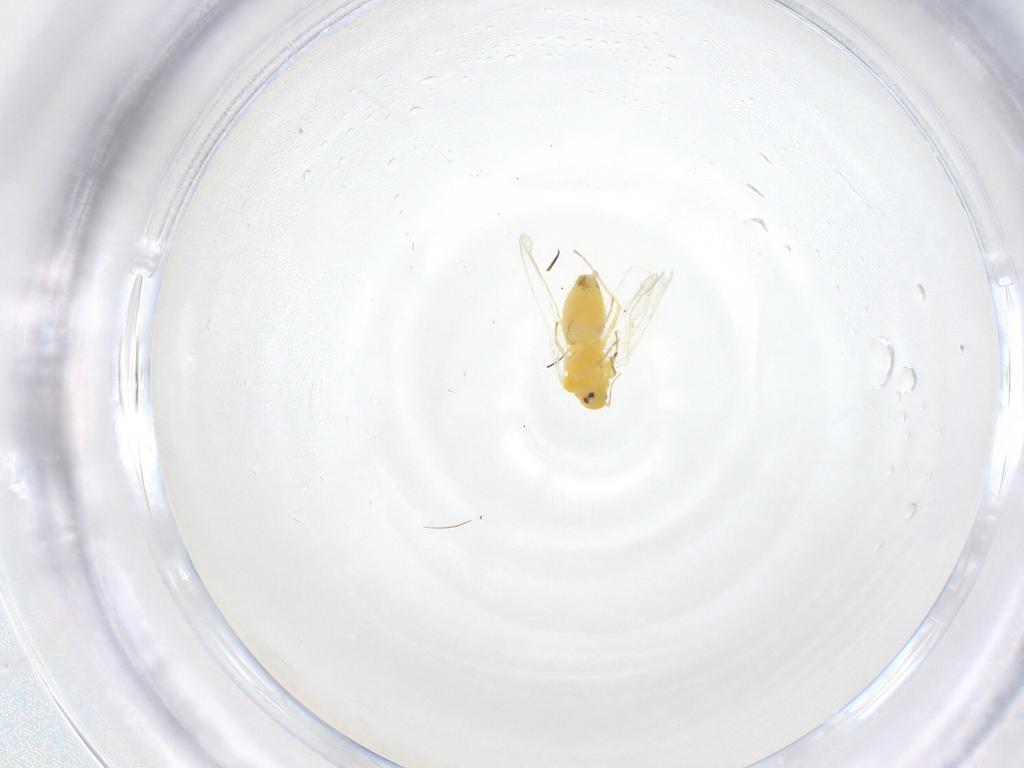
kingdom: Animalia
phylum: Arthropoda
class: Insecta
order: Hemiptera
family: Aleyrodidae
